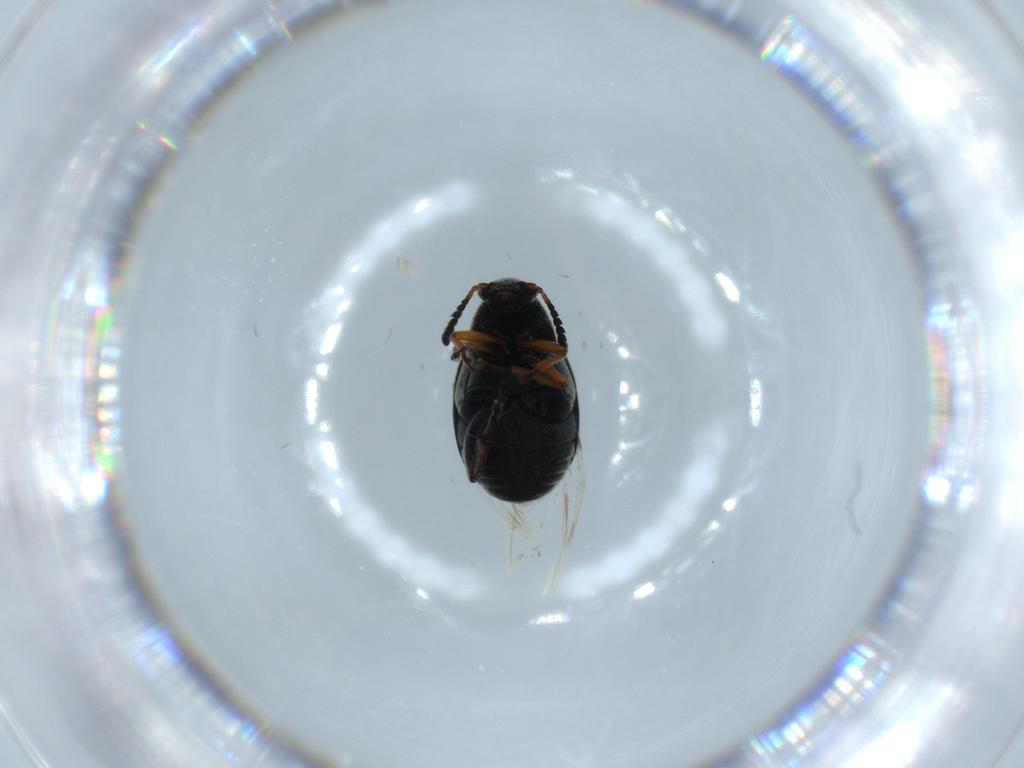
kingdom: Animalia
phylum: Arthropoda
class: Insecta
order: Coleoptera
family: Chrysomelidae
